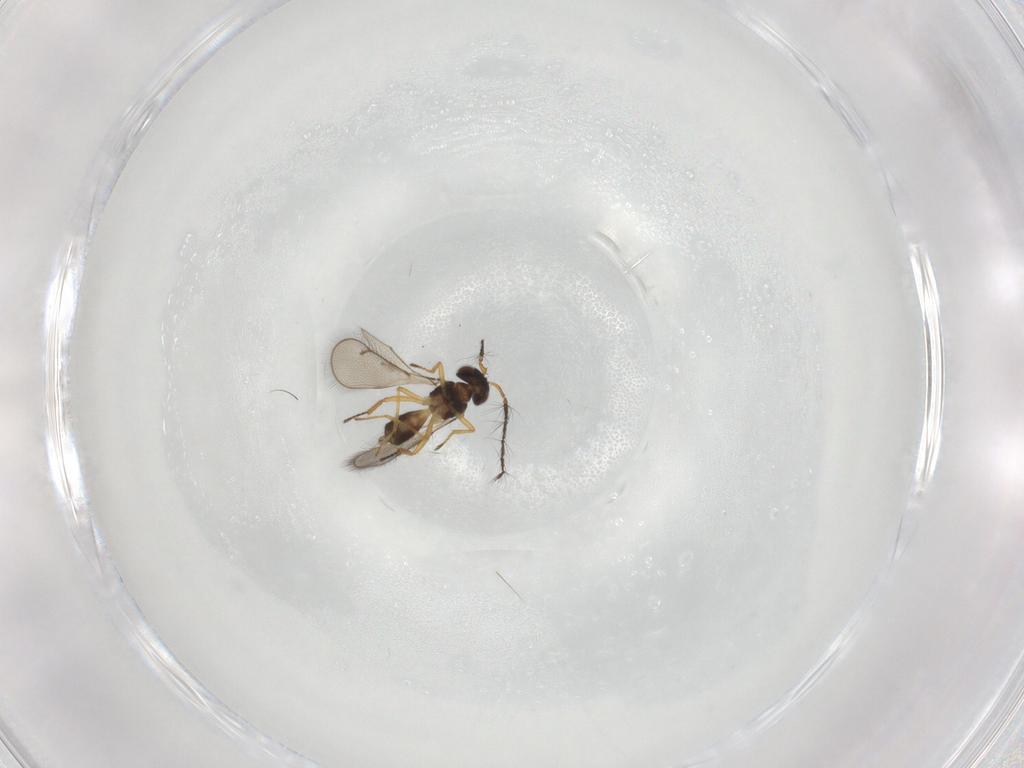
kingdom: Animalia
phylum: Arthropoda
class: Insecta
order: Hymenoptera
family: Eulophidae
